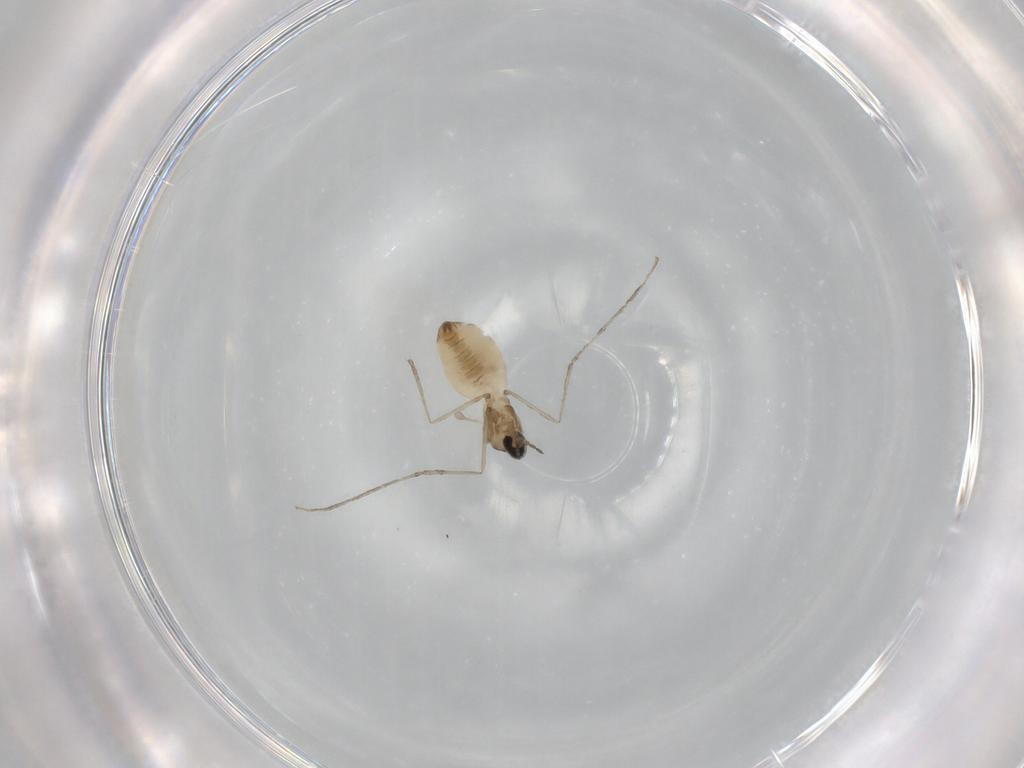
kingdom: Animalia
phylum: Arthropoda
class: Insecta
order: Diptera
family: Cecidomyiidae
